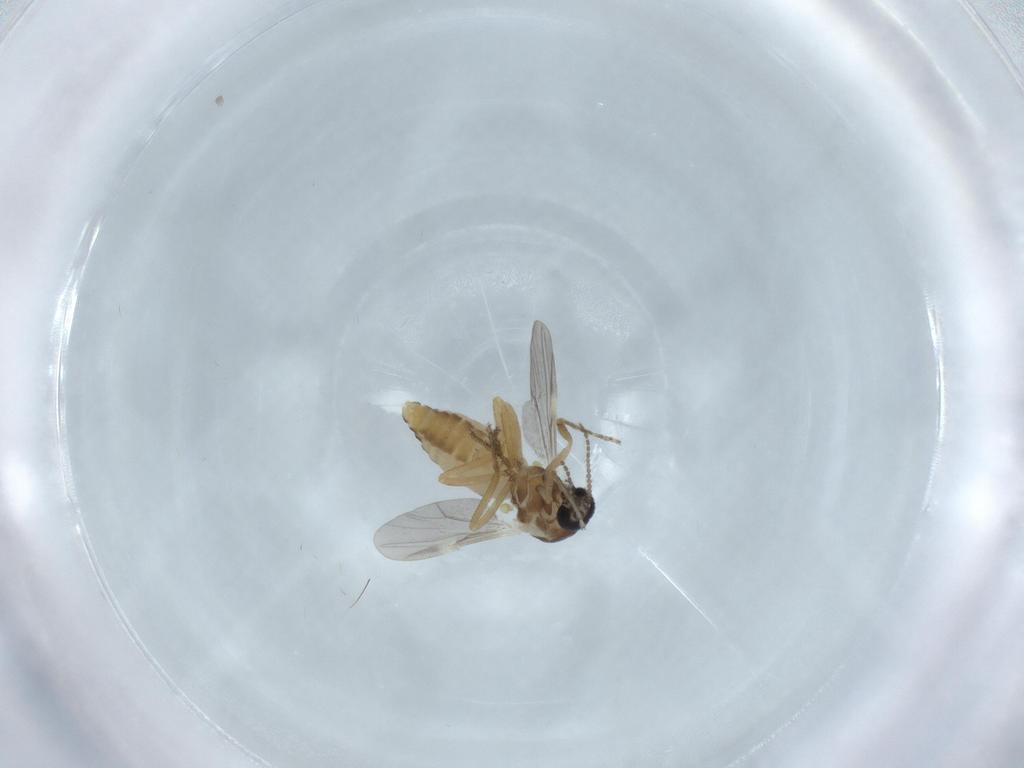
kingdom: Animalia
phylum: Arthropoda
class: Insecta
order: Diptera
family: Ceratopogonidae
